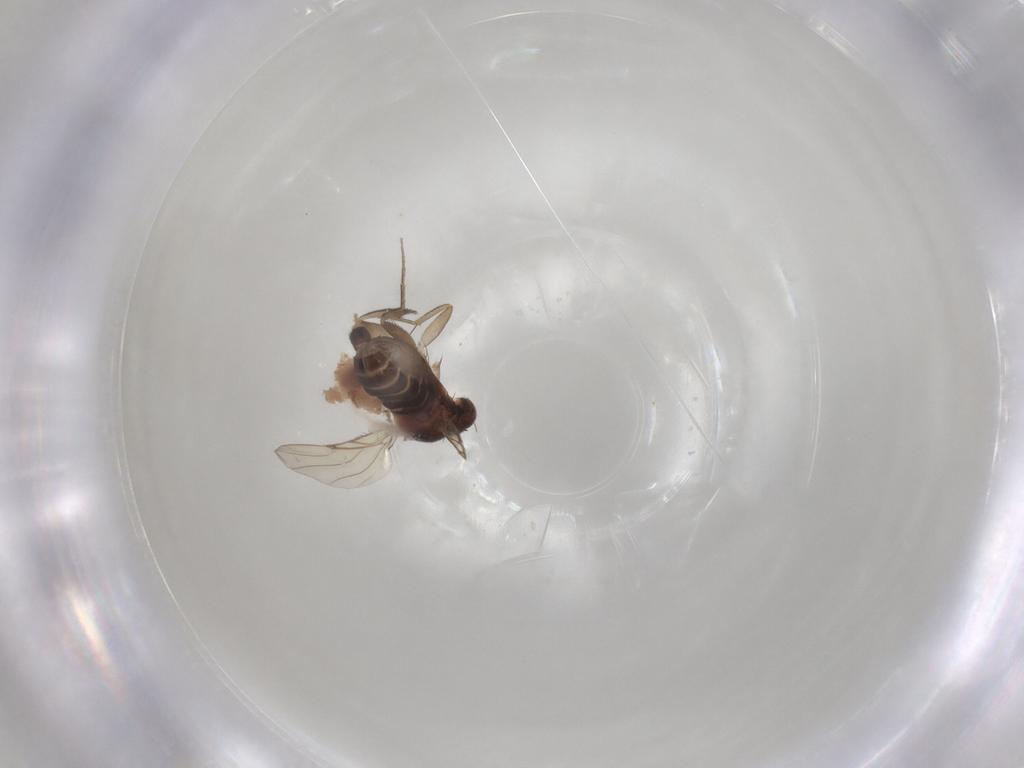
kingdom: Animalia
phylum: Arthropoda
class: Insecta
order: Diptera
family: Phoridae
